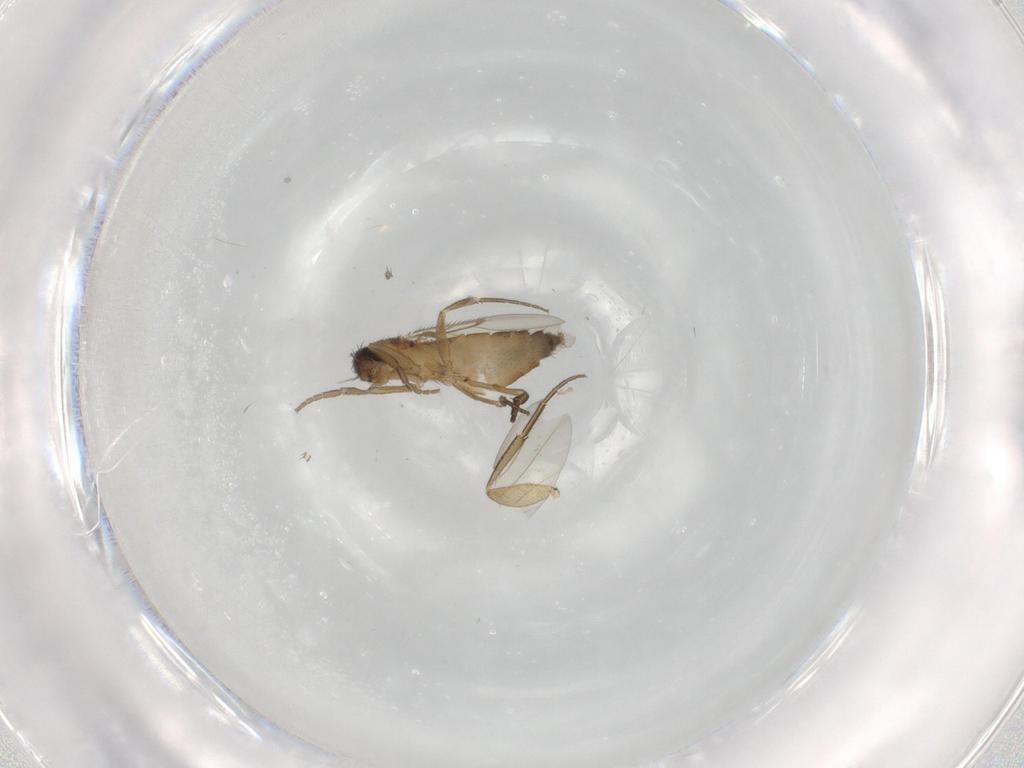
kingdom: Animalia
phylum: Arthropoda
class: Insecta
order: Diptera
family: Phoridae
